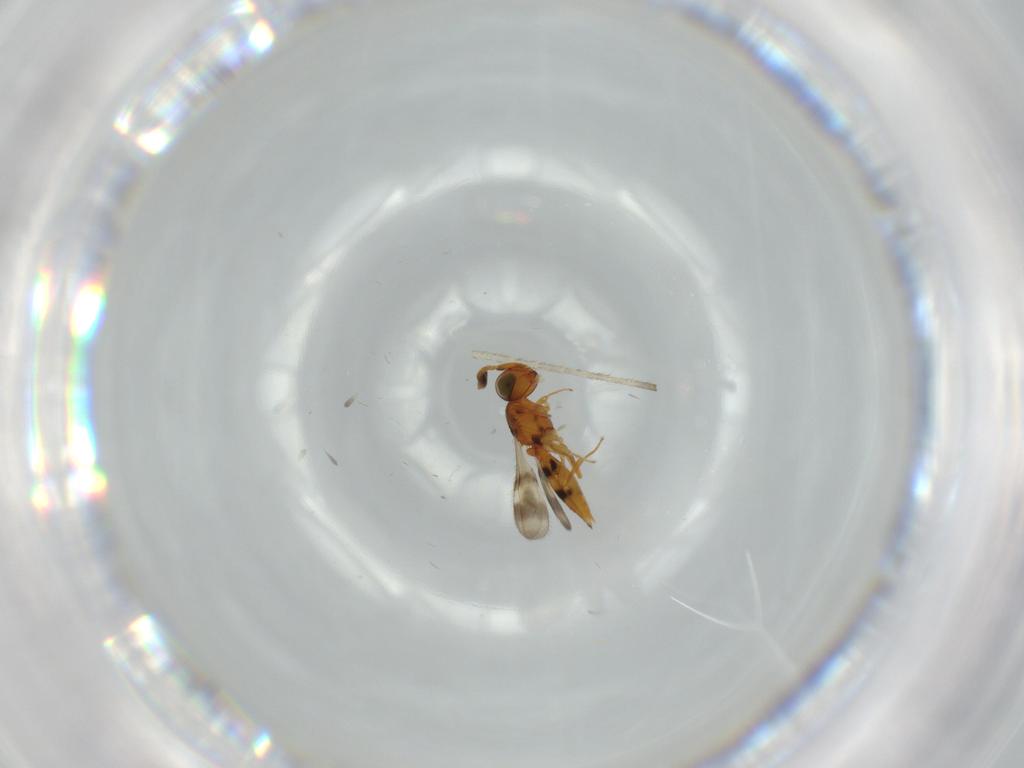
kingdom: Animalia
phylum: Arthropoda
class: Insecta
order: Hymenoptera
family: Scelionidae
